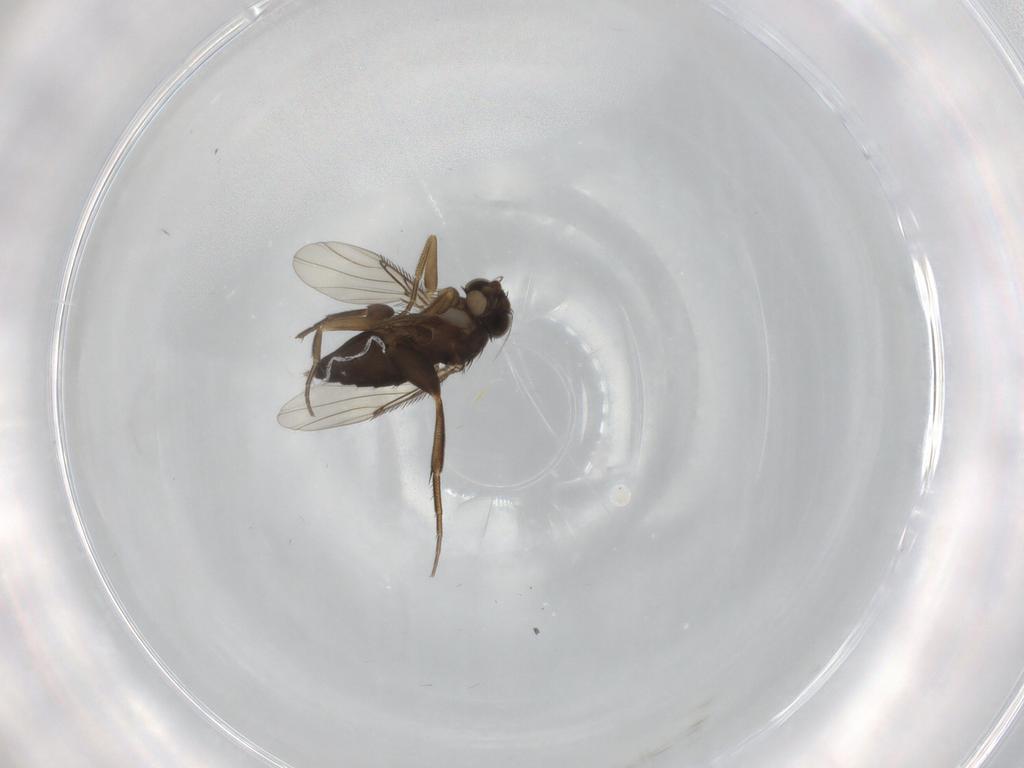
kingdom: Animalia
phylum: Arthropoda
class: Insecta
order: Diptera
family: Phoridae
